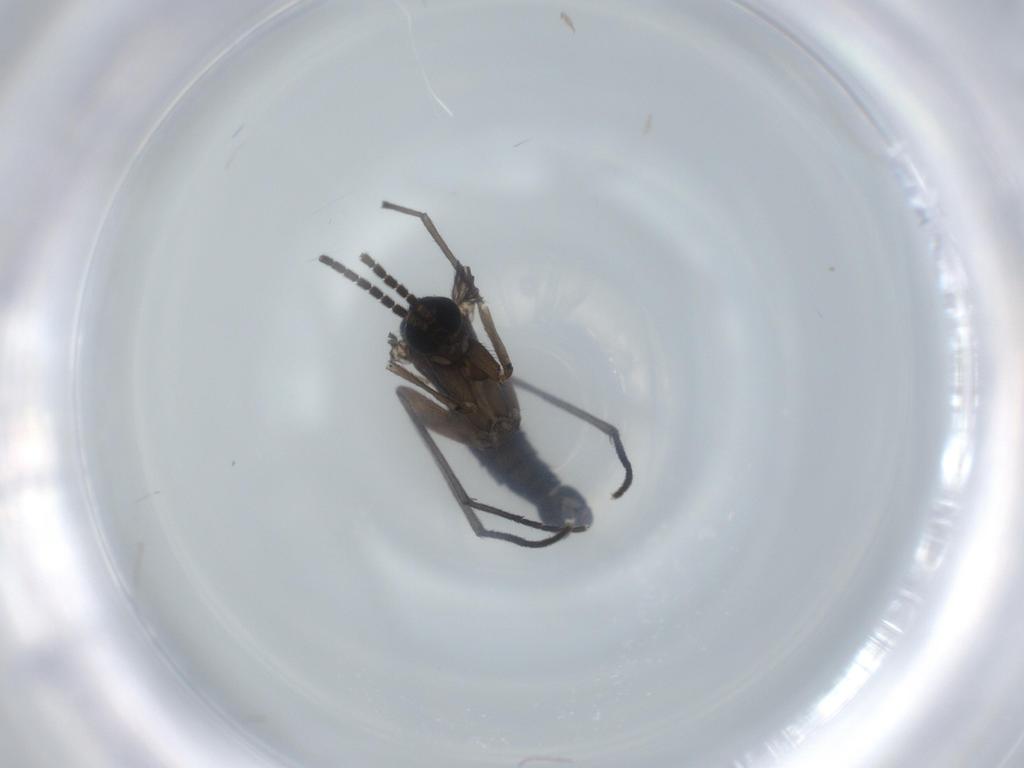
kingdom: Animalia
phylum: Arthropoda
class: Insecta
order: Diptera
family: Sciaridae
